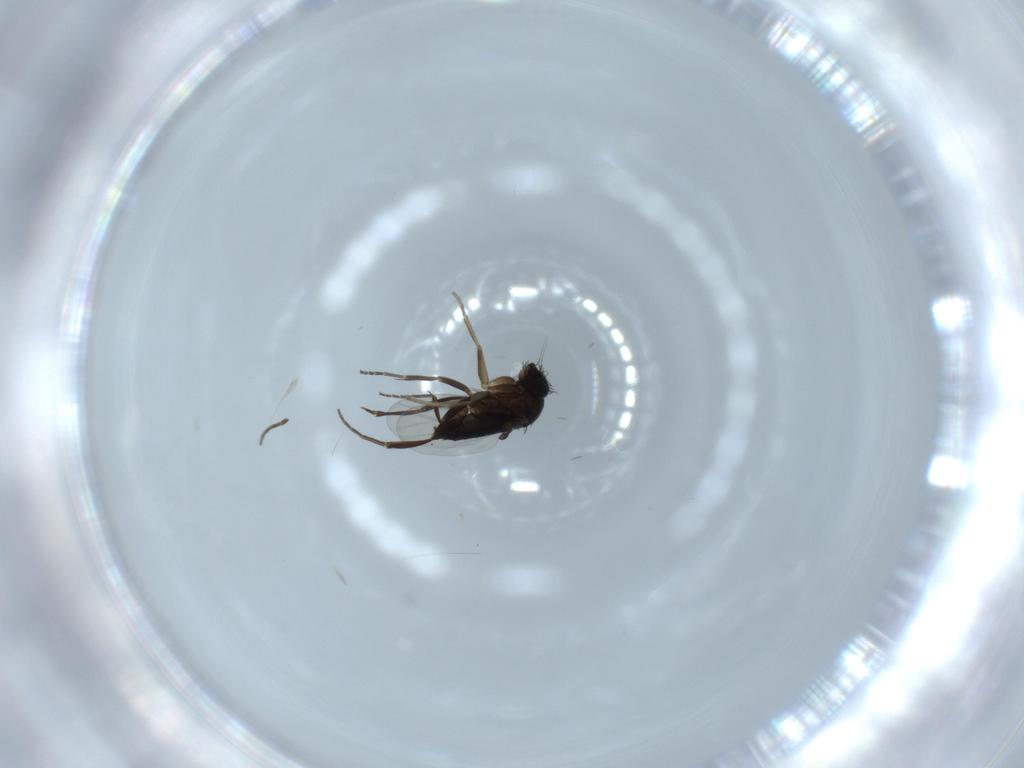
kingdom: Animalia
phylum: Arthropoda
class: Insecta
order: Diptera
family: Phoridae
